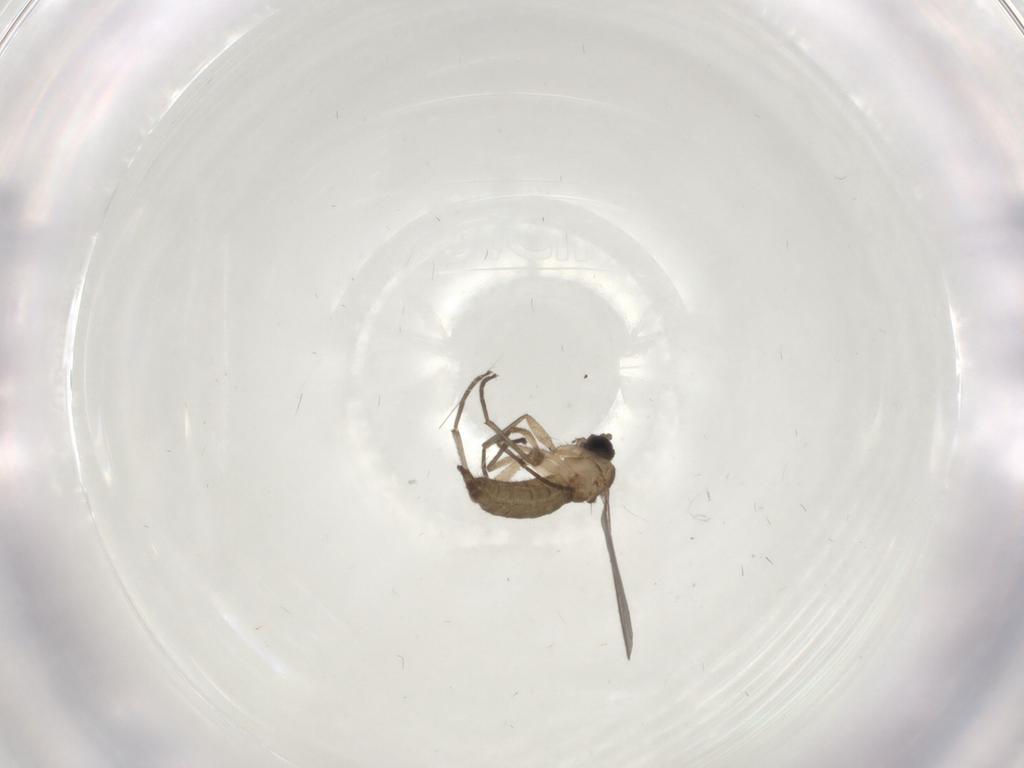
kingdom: Animalia
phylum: Arthropoda
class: Insecta
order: Diptera
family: Sciaridae
